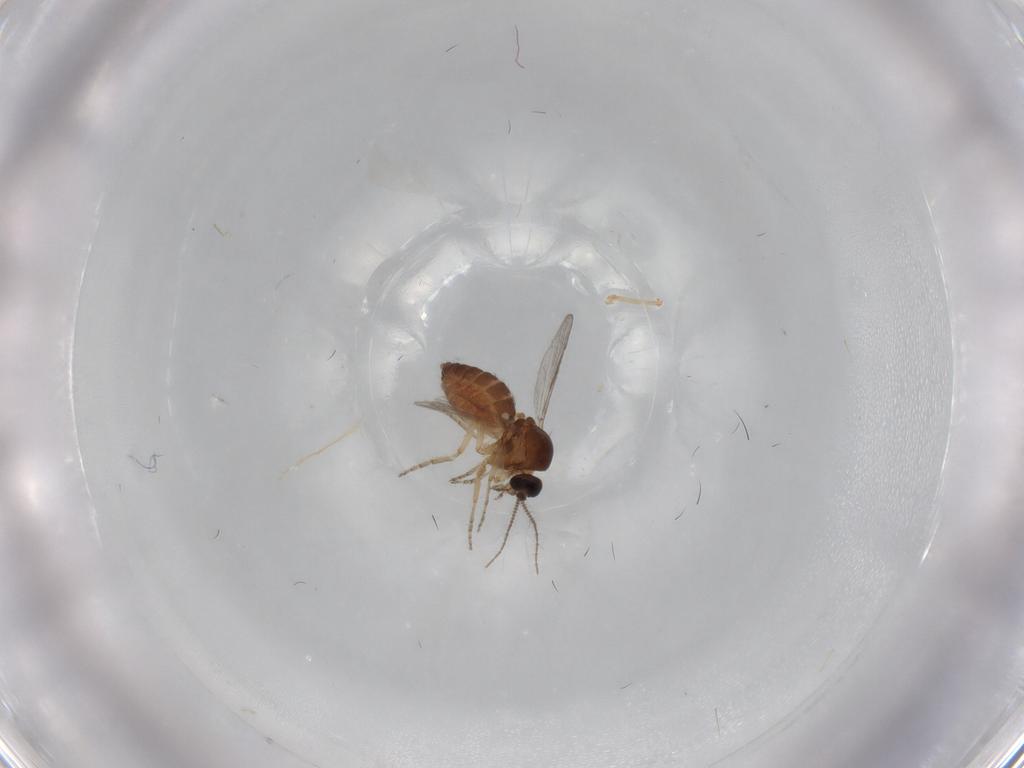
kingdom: Animalia
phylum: Arthropoda
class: Insecta
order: Diptera
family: Ceratopogonidae
